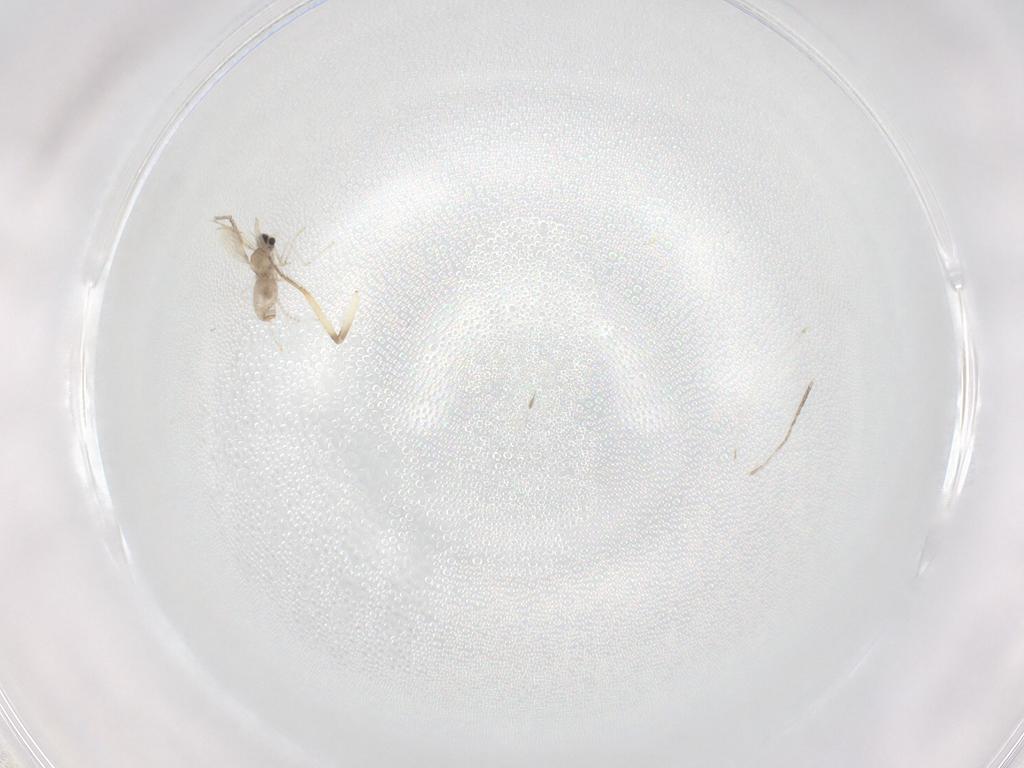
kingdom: Animalia
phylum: Arthropoda
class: Insecta
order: Diptera
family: Cecidomyiidae
